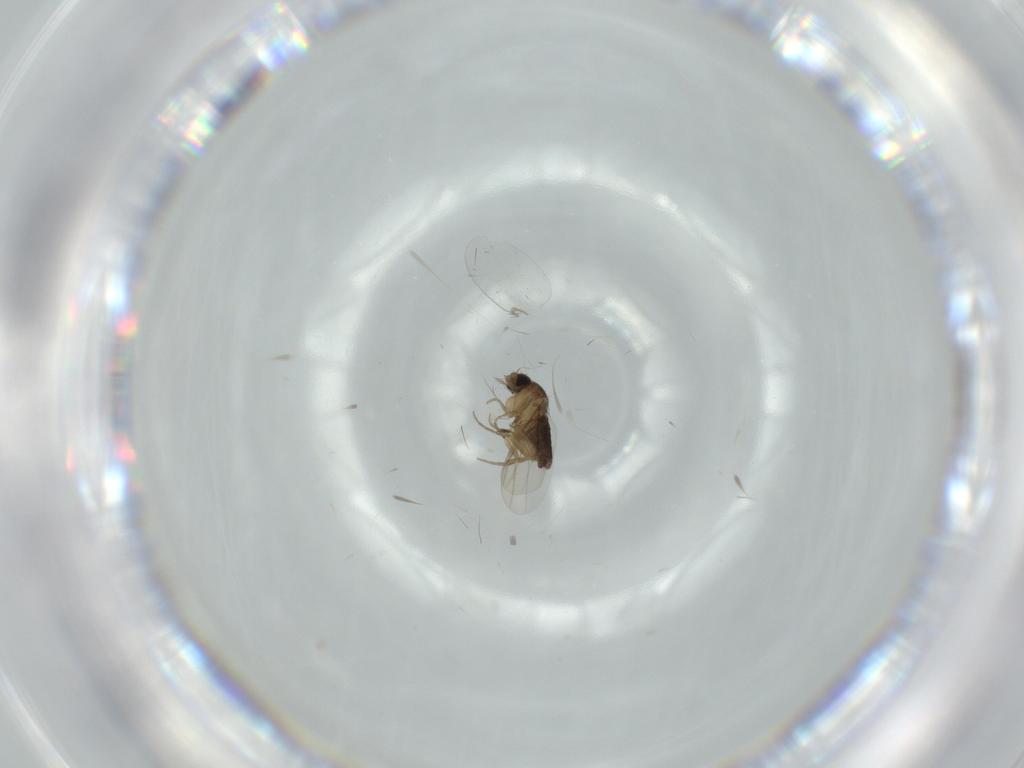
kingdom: Animalia
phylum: Arthropoda
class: Insecta
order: Diptera
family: Phoridae
